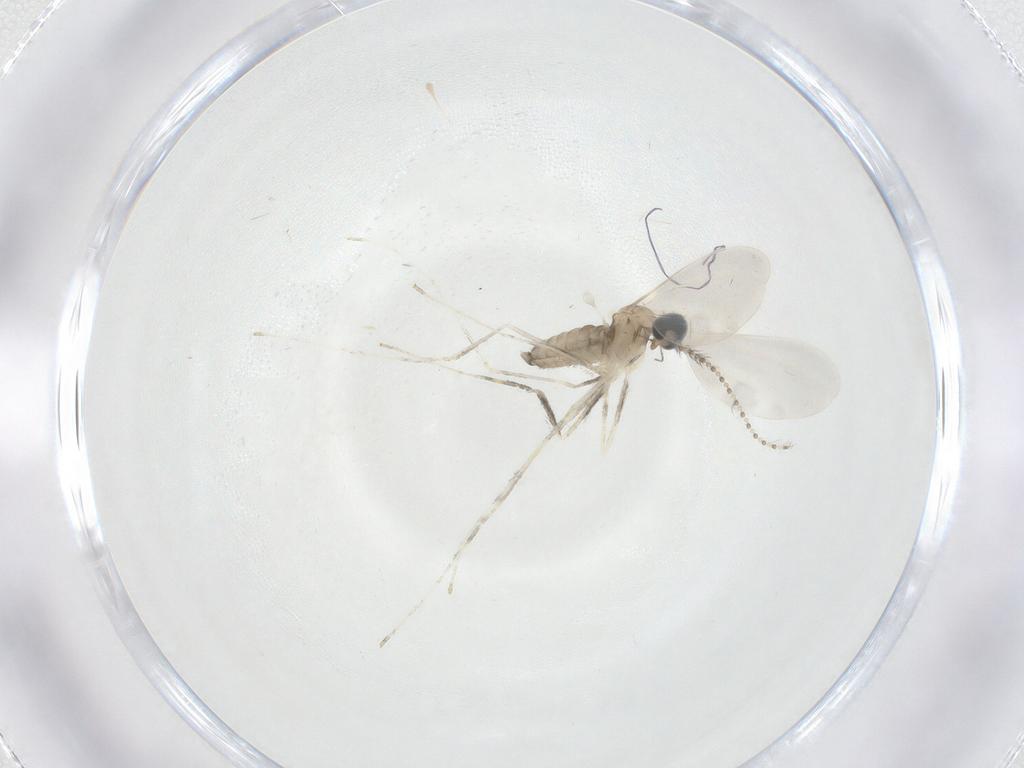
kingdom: Animalia
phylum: Arthropoda
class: Insecta
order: Diptera
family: Cecidomyiidae
